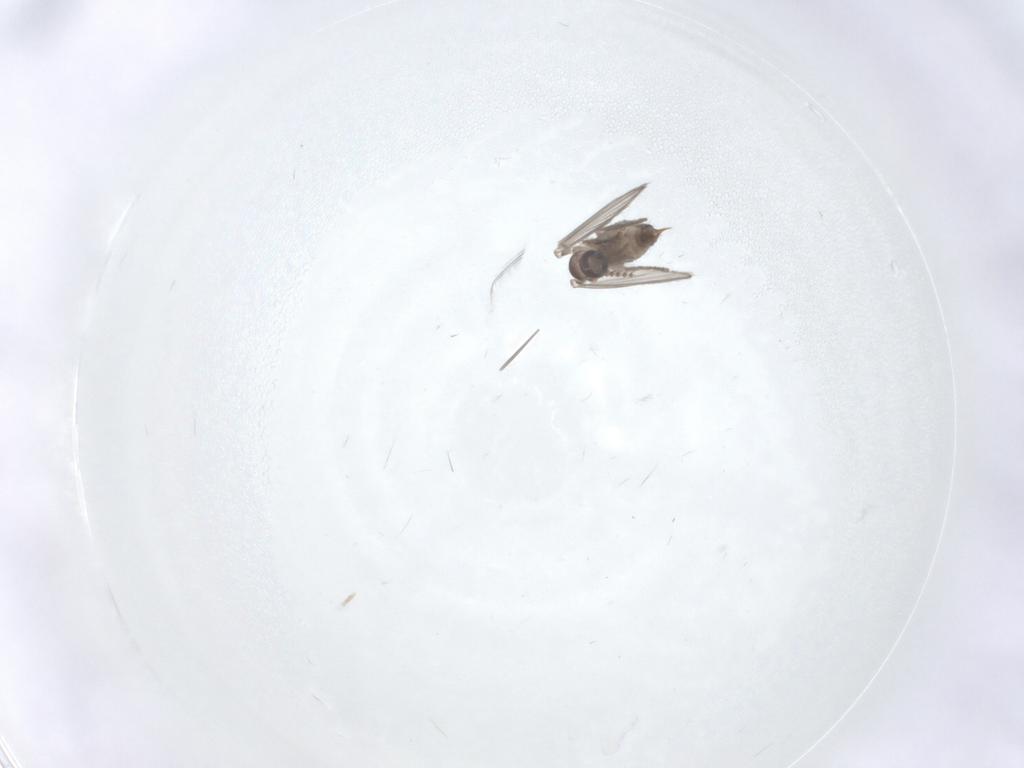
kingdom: Animalia
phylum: Arthropoda
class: Insecta
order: Diptera
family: Psychodidae
